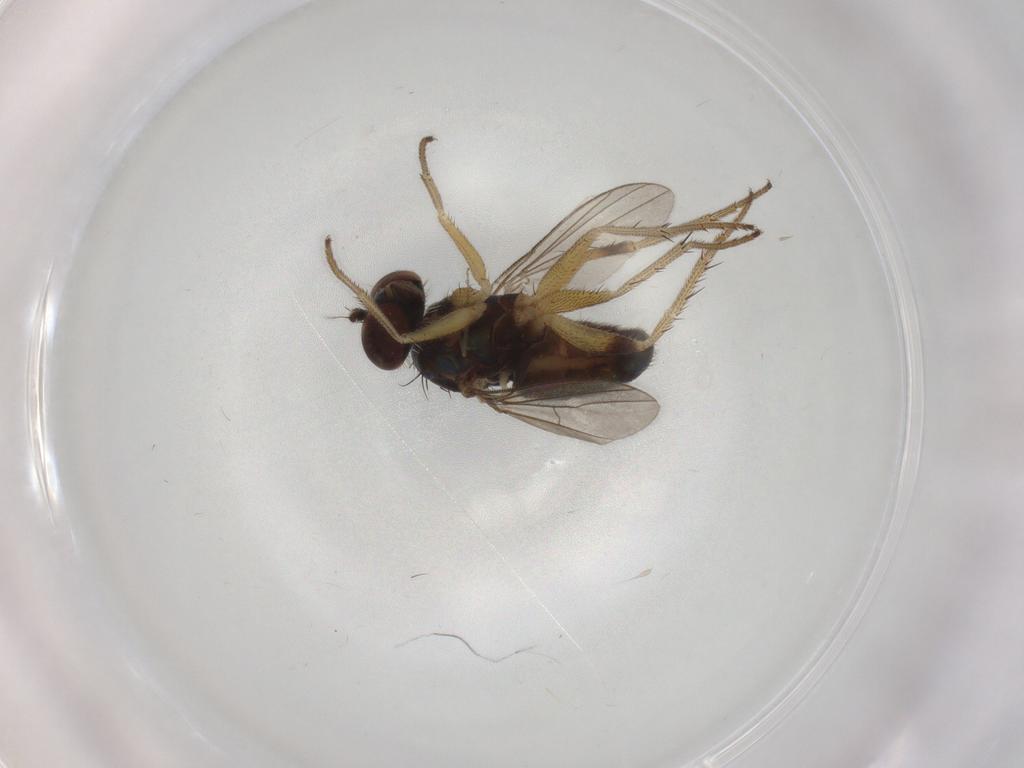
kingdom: Animalia
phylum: Arthropoda
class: Insecta
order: Diptera
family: Dolichopodidae
